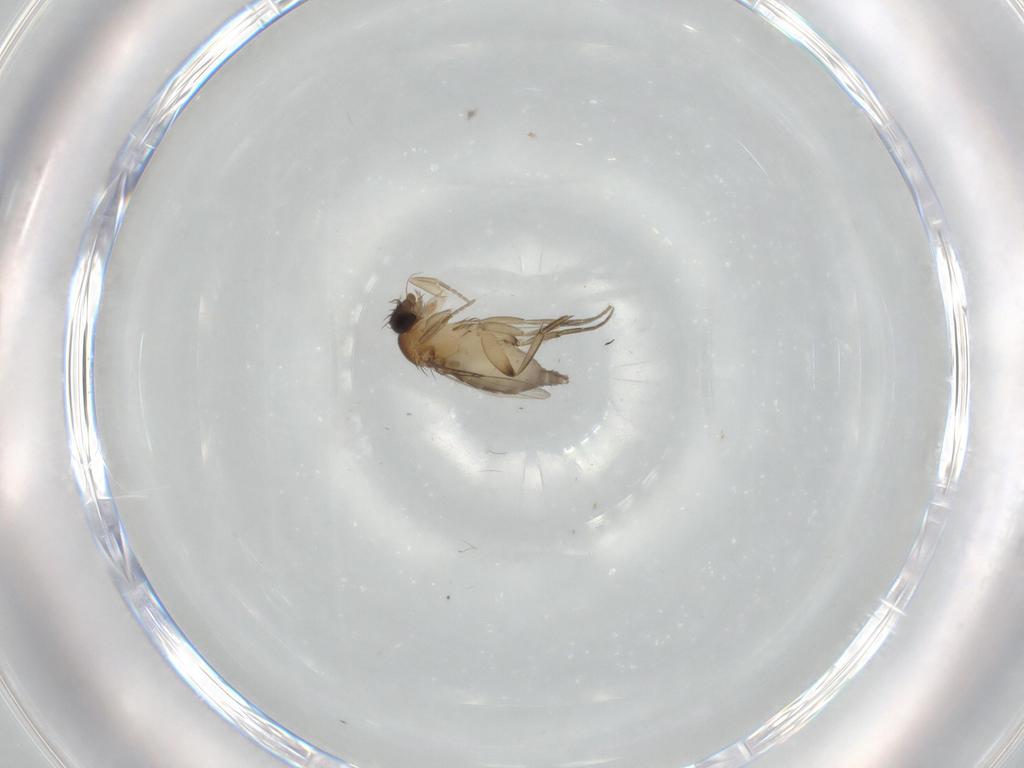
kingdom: Animalia
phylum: Arthropoda
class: Insecta
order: Diptera
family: Phoridae
